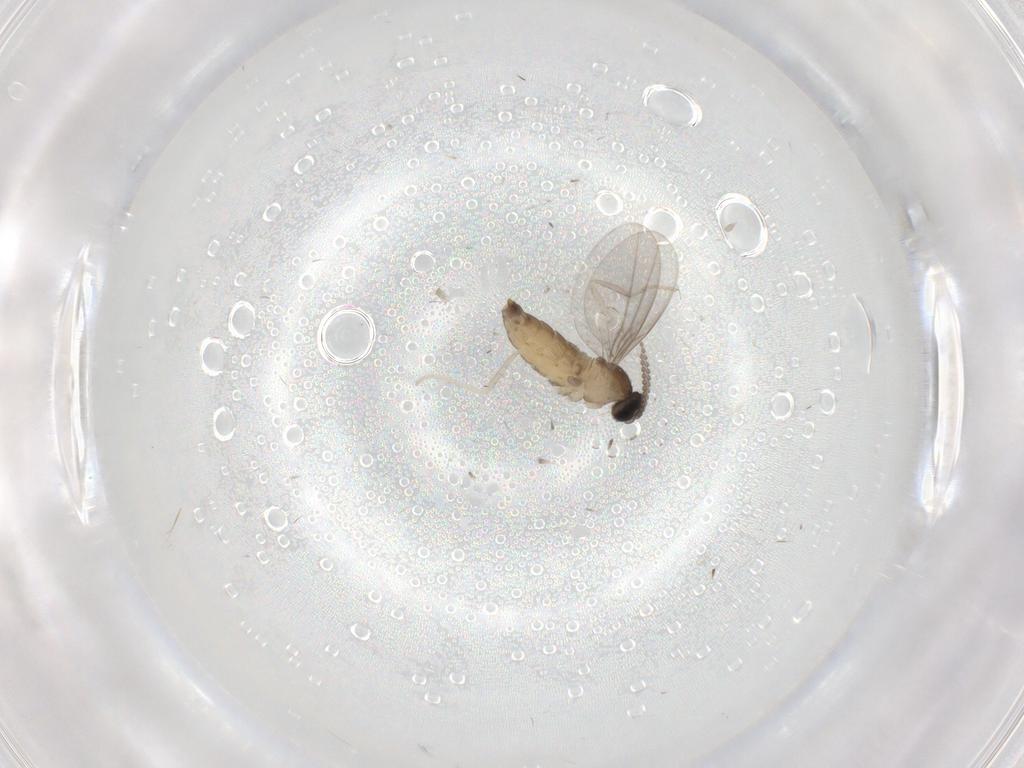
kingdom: Animalia
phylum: Arthropoda
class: Insecta
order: Diptera
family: Cecidomyiidae
